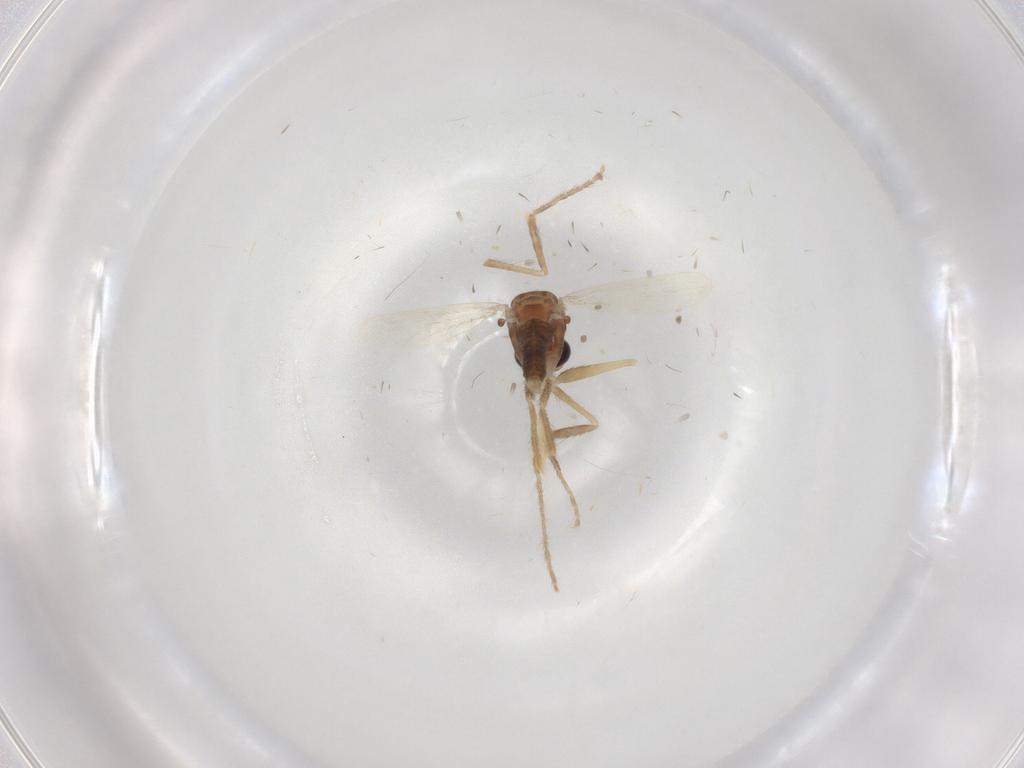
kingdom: Animalia
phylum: Arthropoda
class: Insecta
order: Diptera
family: Corethrellidae
